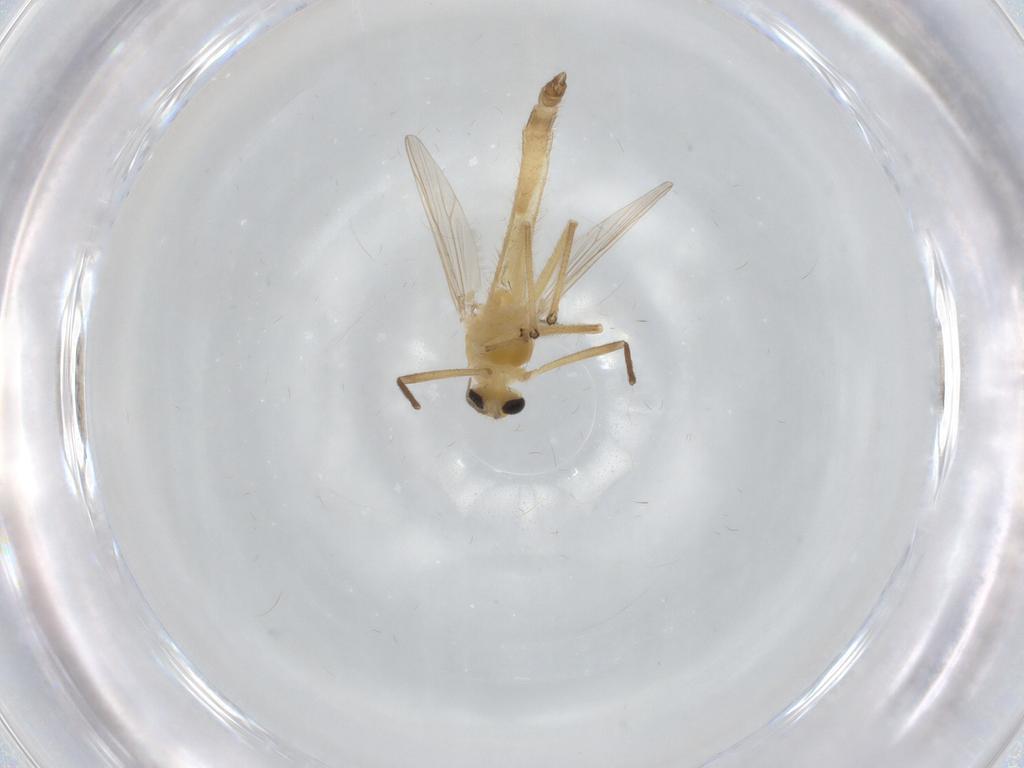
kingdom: Animalia
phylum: Arthropoda
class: Insecta
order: Diptera
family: Chironomidae
